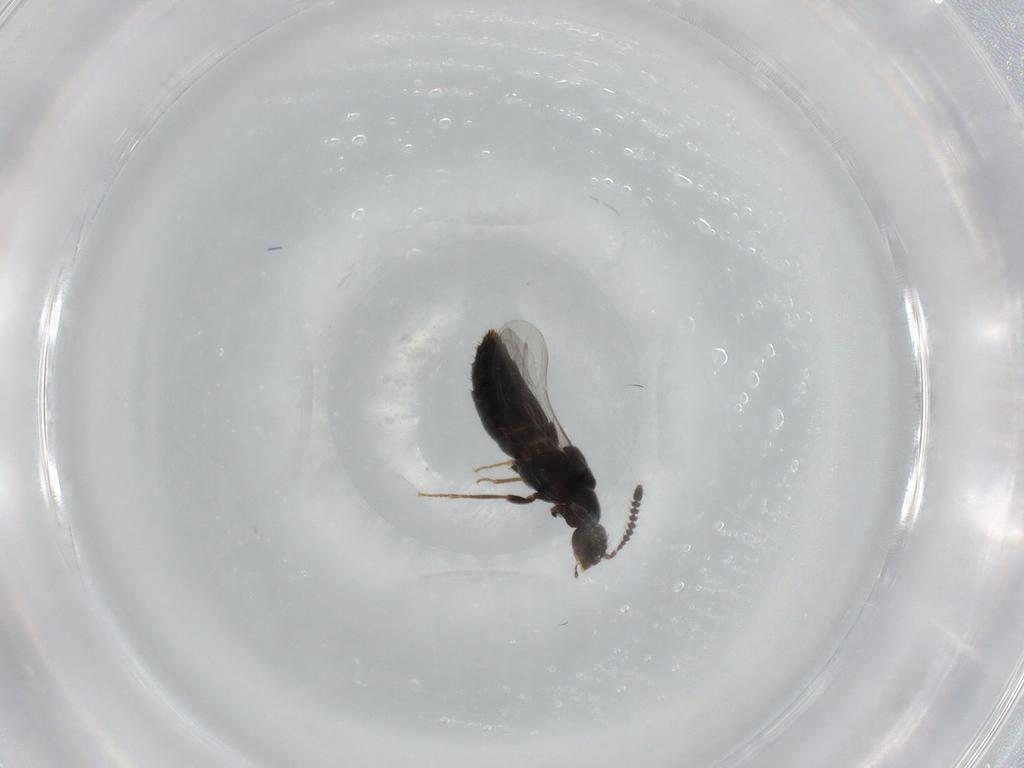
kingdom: Animalia
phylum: Arthropoda
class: Insecta
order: Coleoptera
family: Staphylinidae
